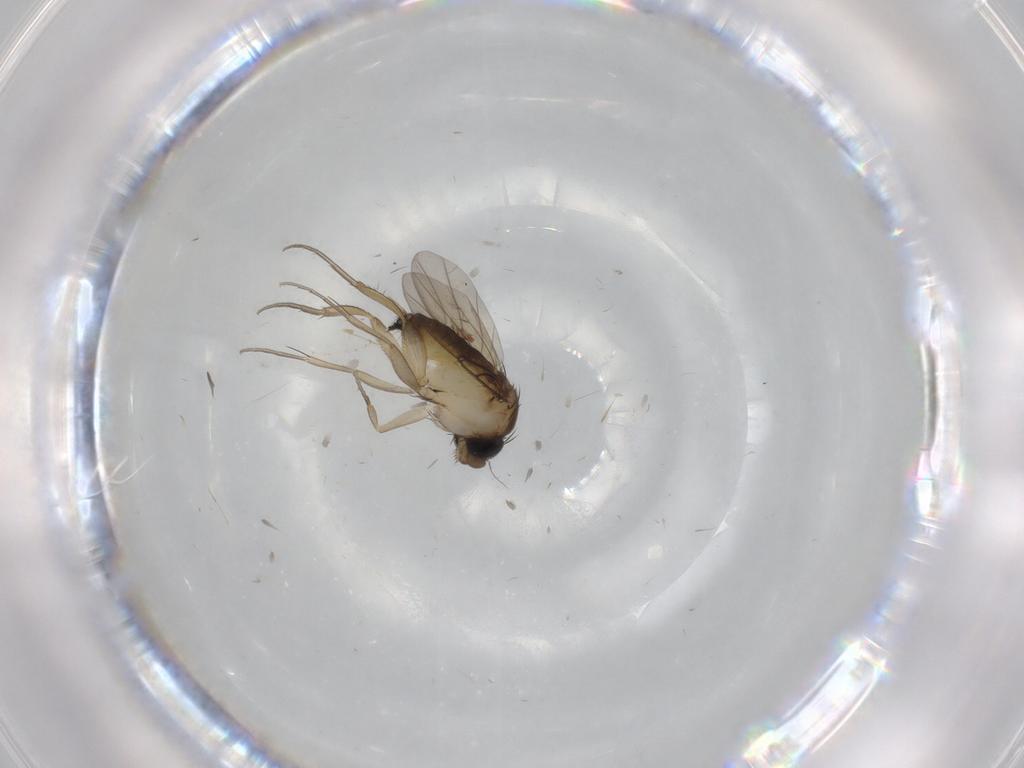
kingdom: Animalia
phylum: Arthropoda
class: Insecta
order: Diptera
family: Phoridae
